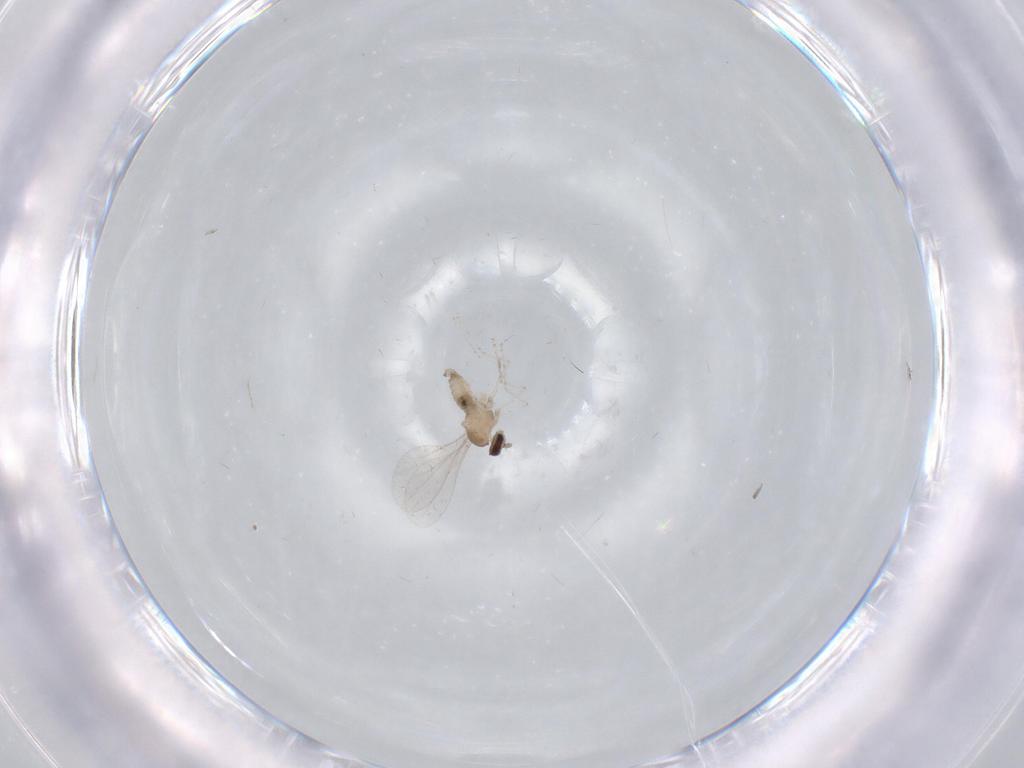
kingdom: Animalia
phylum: Arthropoda
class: Insecta
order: Diptera
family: Cecidomyiidae
